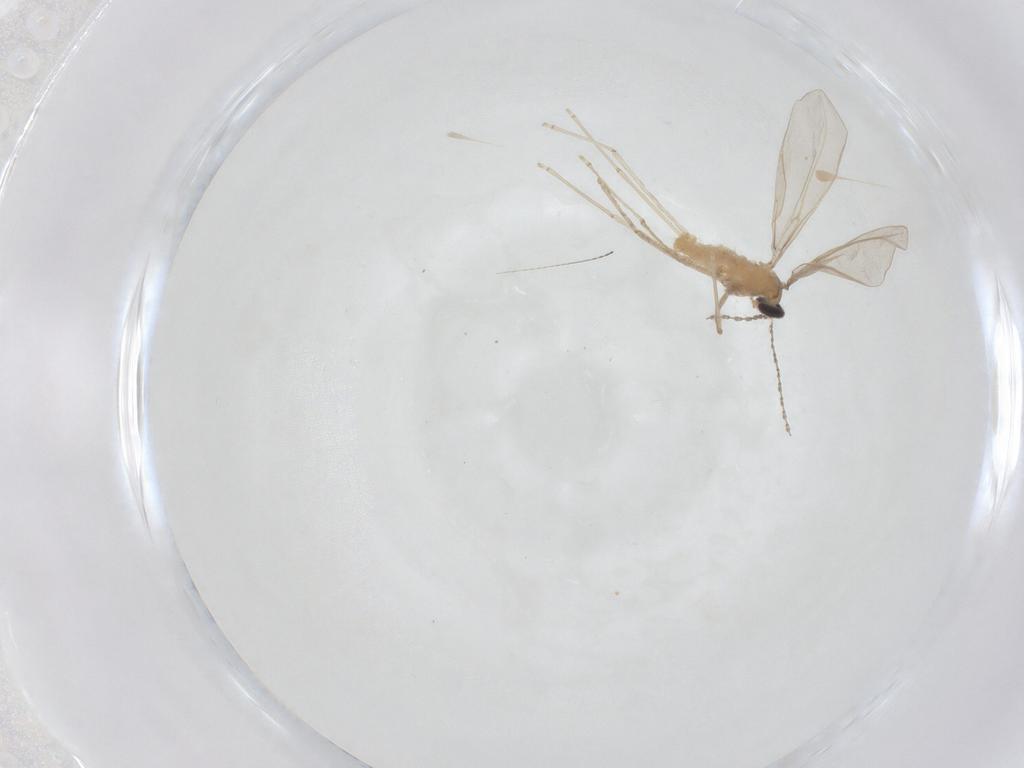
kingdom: Animalia
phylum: Arthropoda
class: Insecta
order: Diptera
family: Cecidomyiidae
